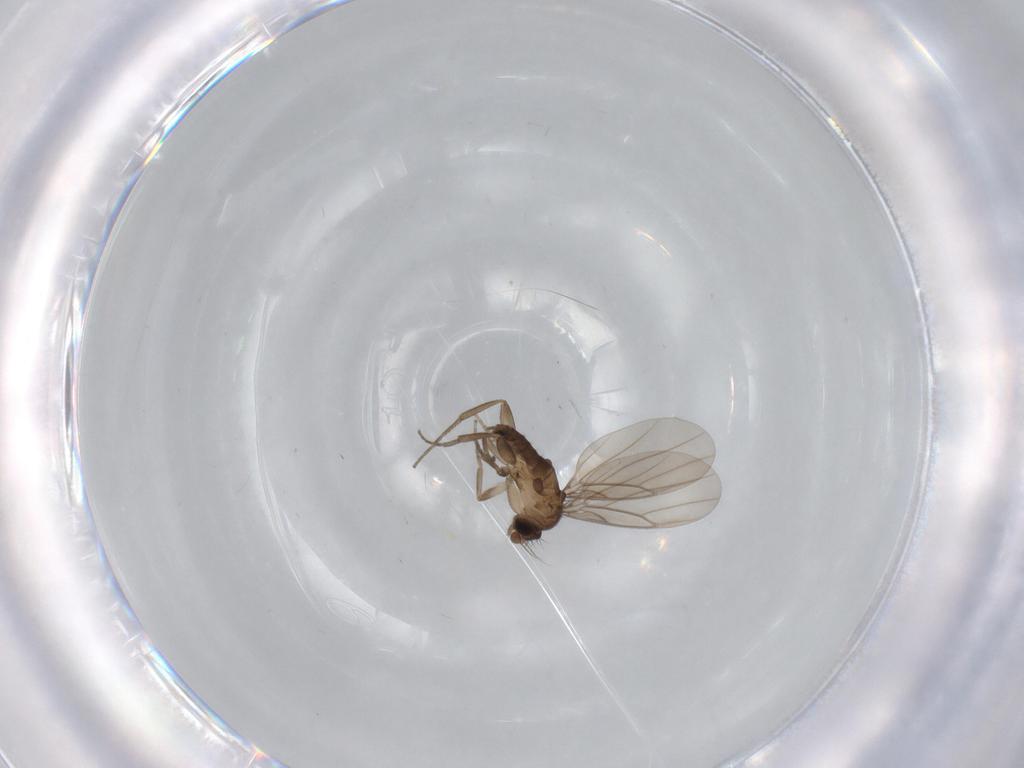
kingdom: Animalia
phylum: Arthropoda
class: Insecta
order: Diptera
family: Chironomidae
